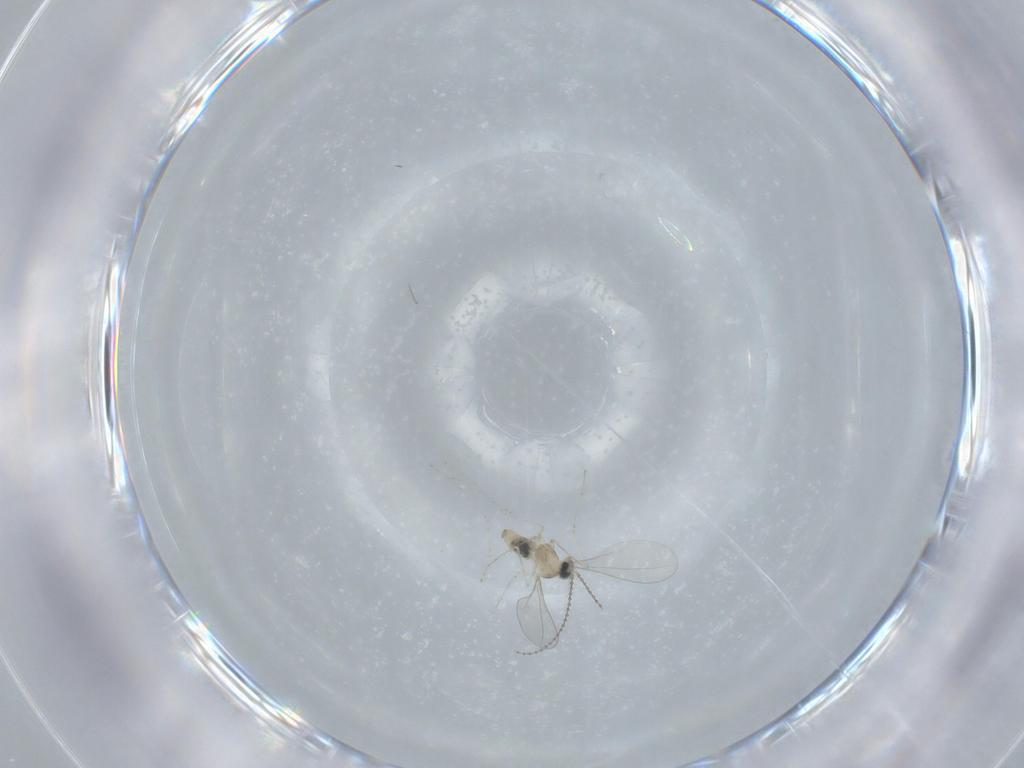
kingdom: Animalia
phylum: Arthropoda
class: Insecta
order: Diptera
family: Cecidomyiidae
